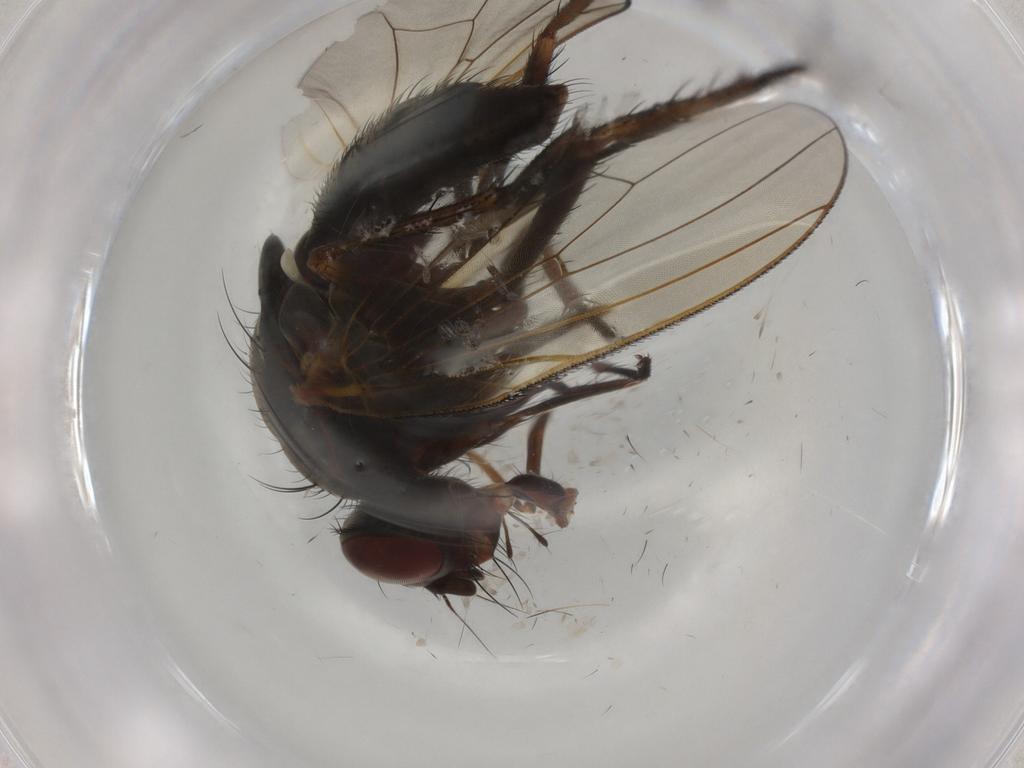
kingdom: Animalia
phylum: Arthropoda
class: Insecta
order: Diptera
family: Anthomyiidae
